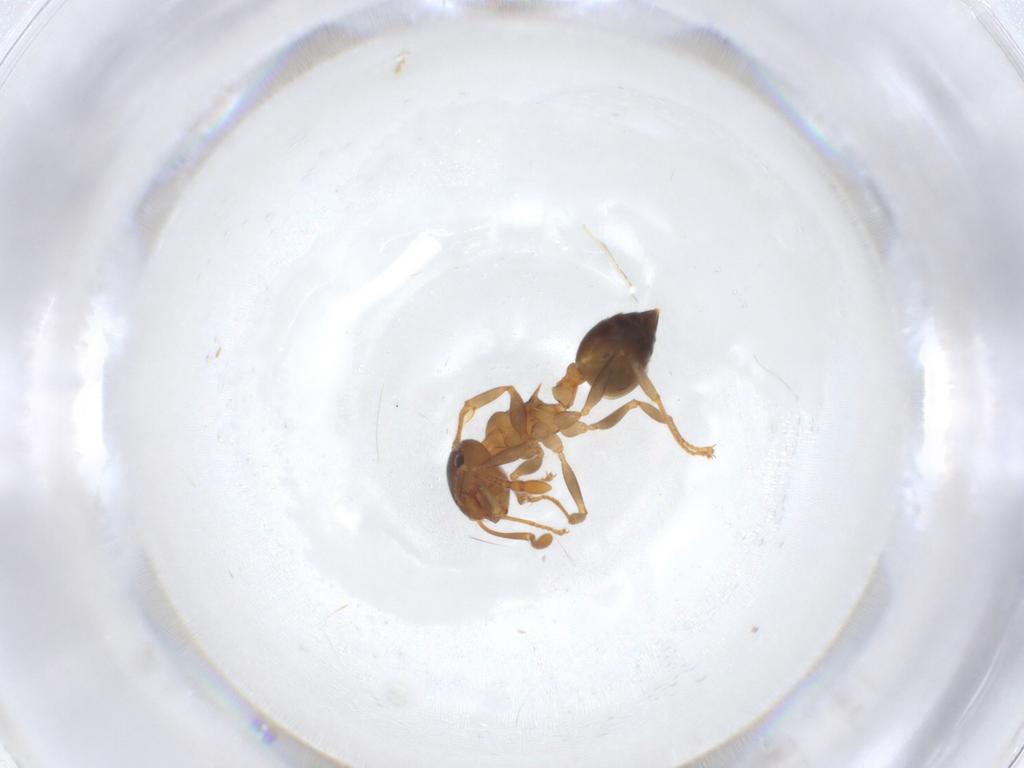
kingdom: Animalia
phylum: Arthropoda
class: Insecta
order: Hymenoptera
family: Formicidae
